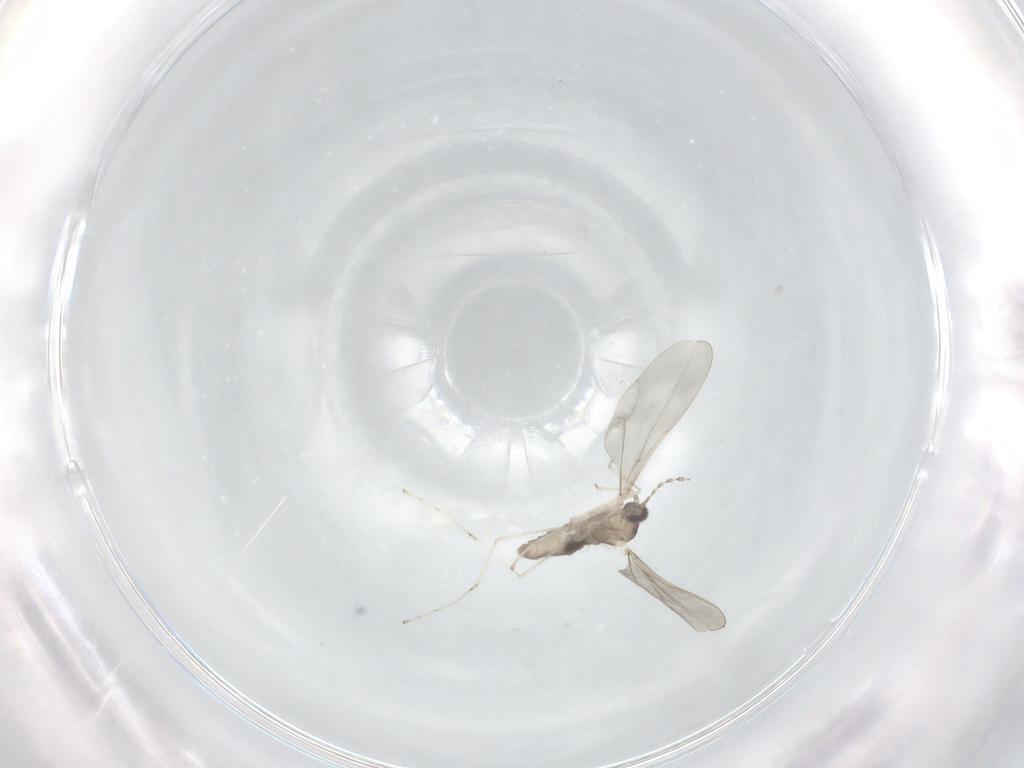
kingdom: Animalia
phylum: Arthropoda
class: Insecta
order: Diptera
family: Cecidomyiidae
